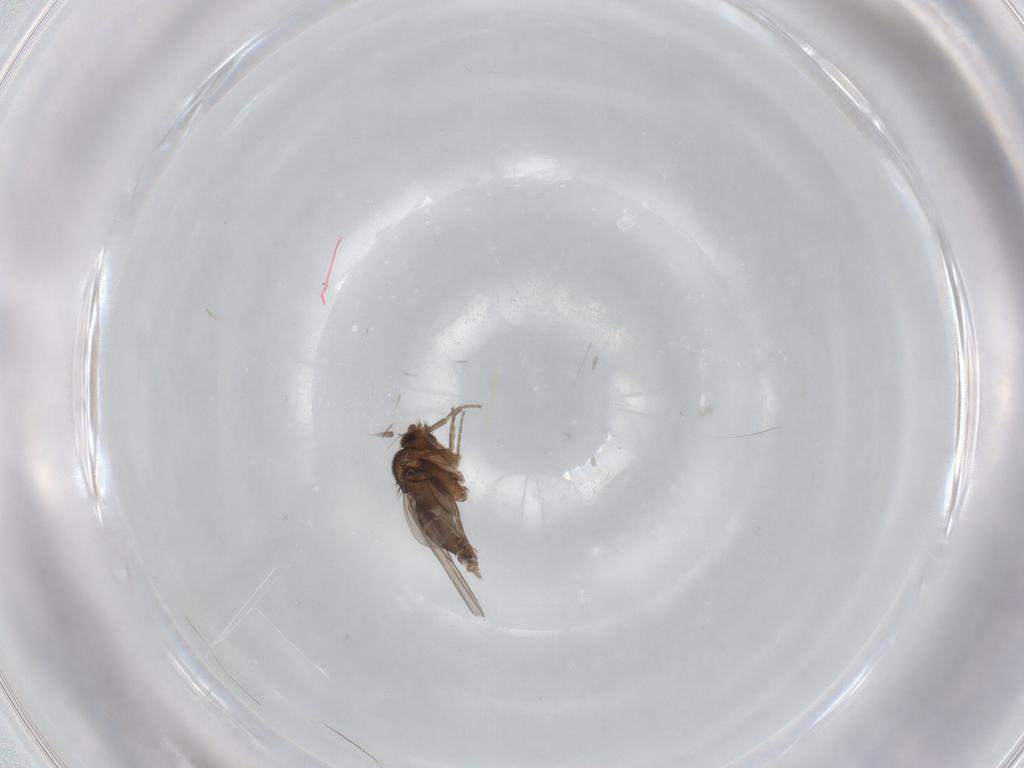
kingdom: Animalia
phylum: Arthropoda
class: Insecta
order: Diptera
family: Phoridae
